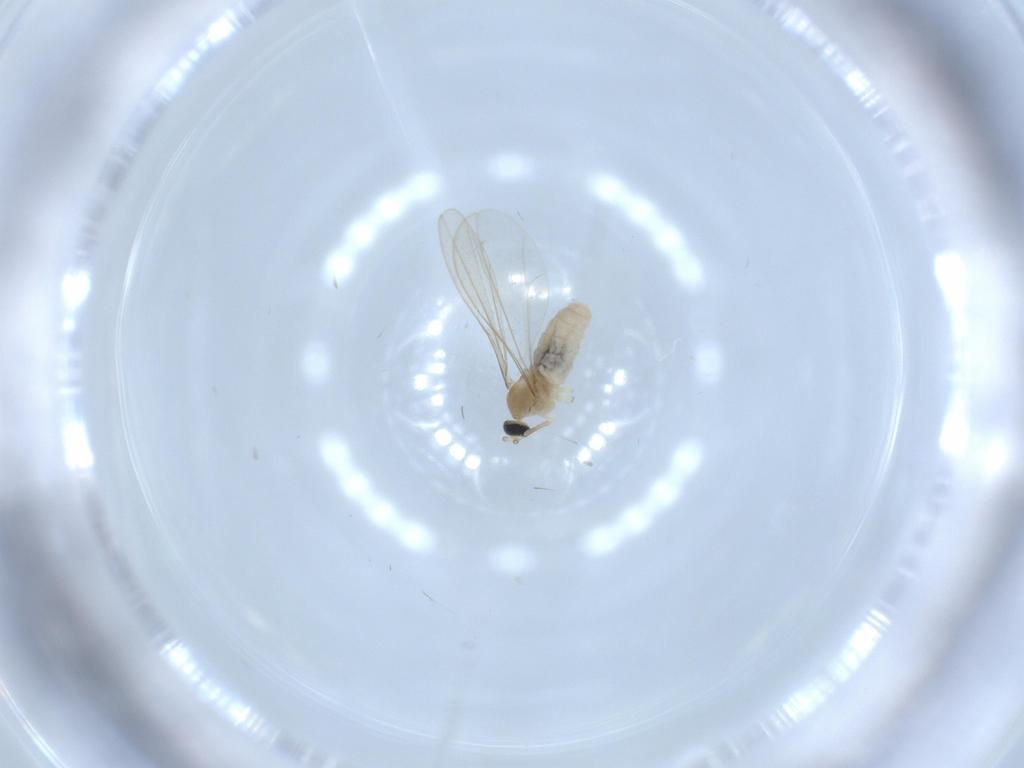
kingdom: Animalia
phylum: Arthropoda
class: Insecta
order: Diptera
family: Cecidomyiidae
